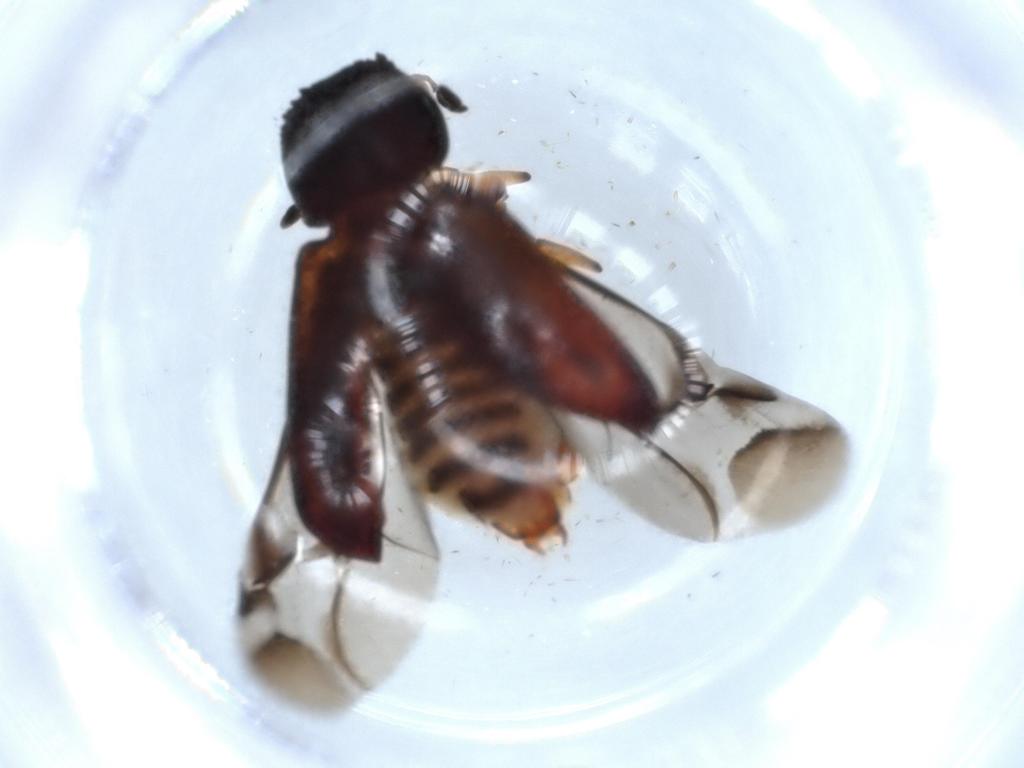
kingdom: Animalia
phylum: Arthropoda
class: Insecta
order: Coleoptera
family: Bostrichidae
